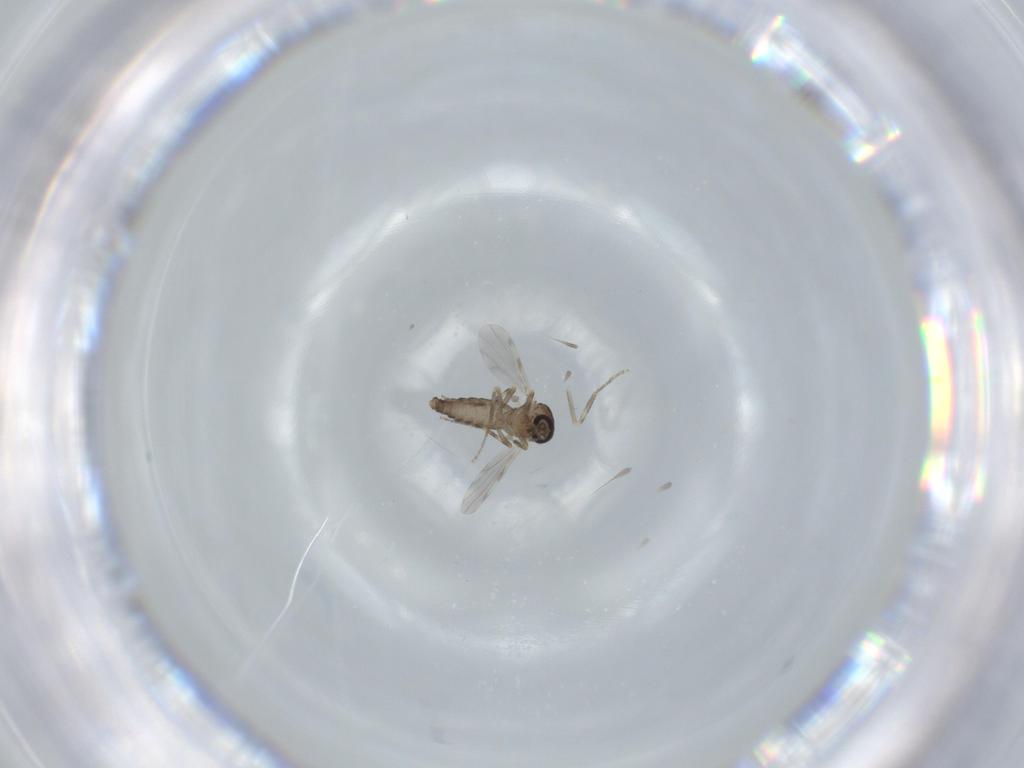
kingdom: Animalia
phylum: Arthropoda
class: Insecta
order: Diptera
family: Ceratopogonidae
